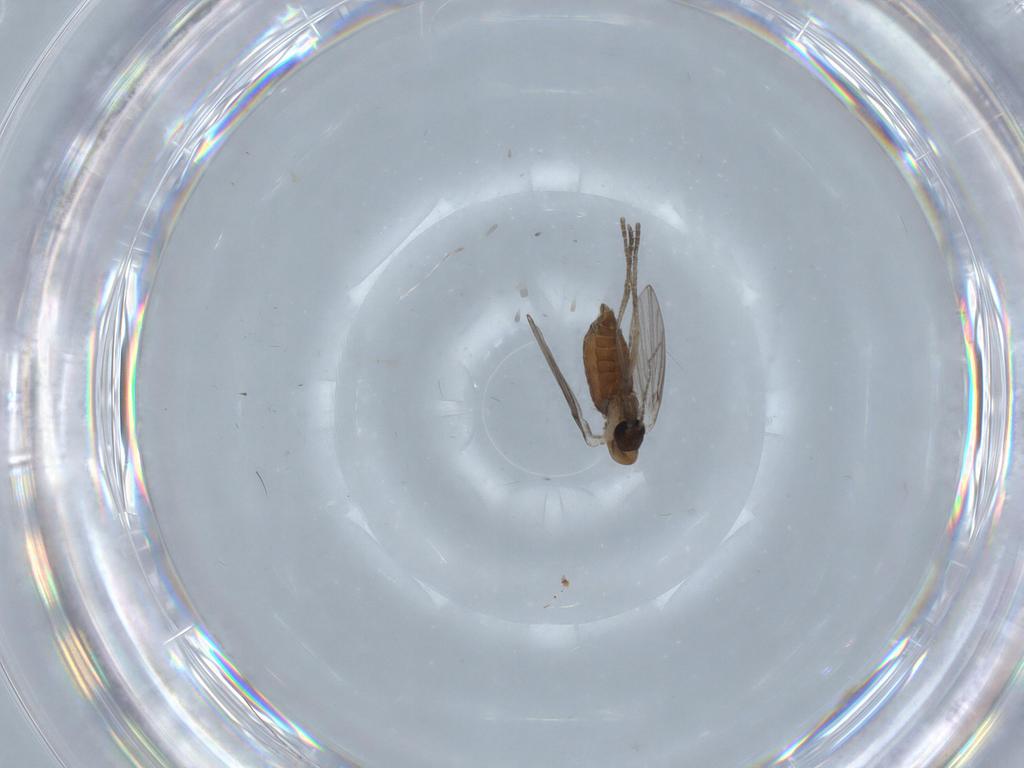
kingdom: Animalia
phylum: Arthropoda
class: Insecta
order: Diptera
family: Psychodidae
